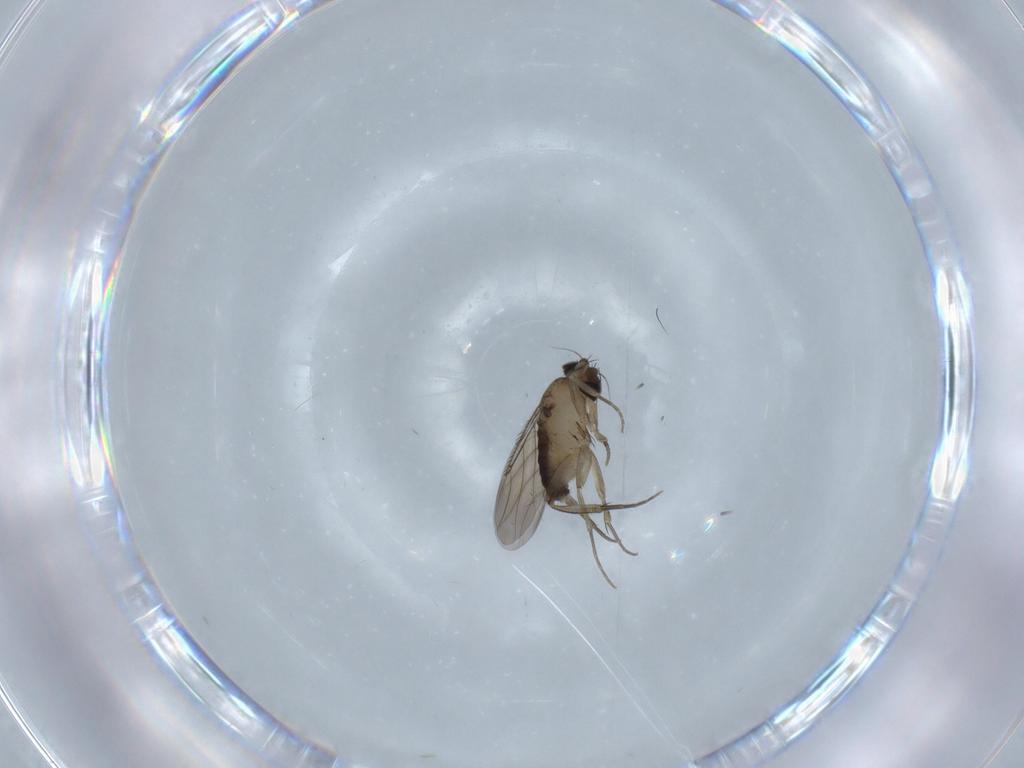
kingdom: Animalia
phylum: Arthropoda
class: Insecta
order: Diptera
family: Phoridae
